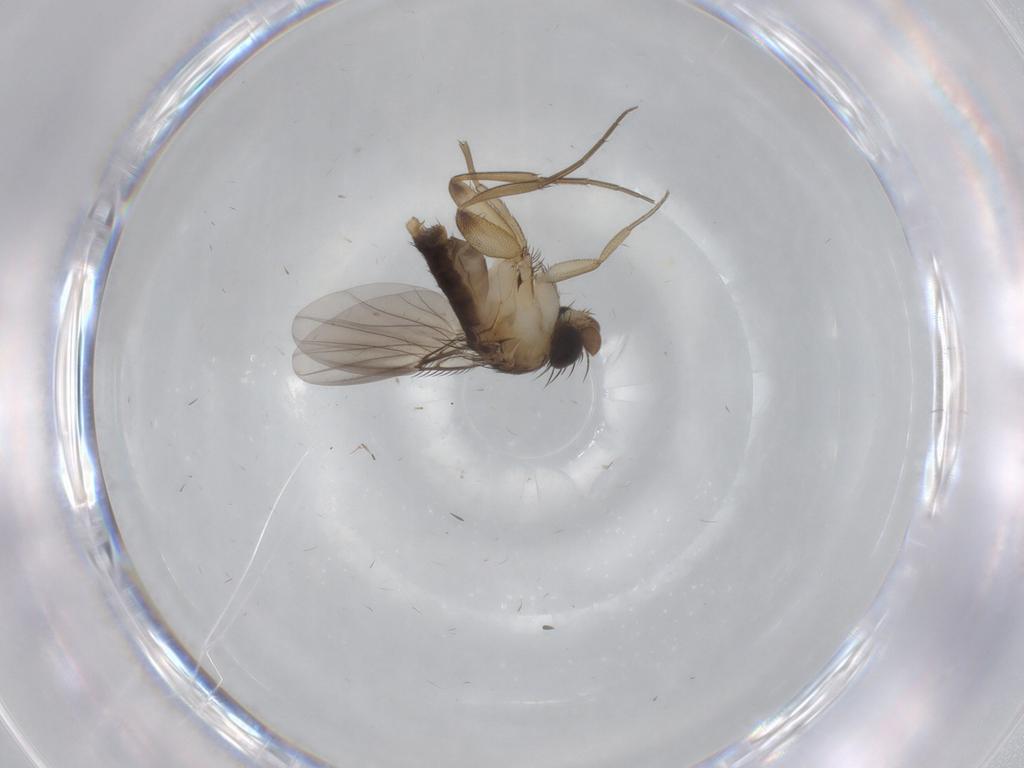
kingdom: Animalia
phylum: Arthropoda
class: Insecta
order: Diptera
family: Phoridae
